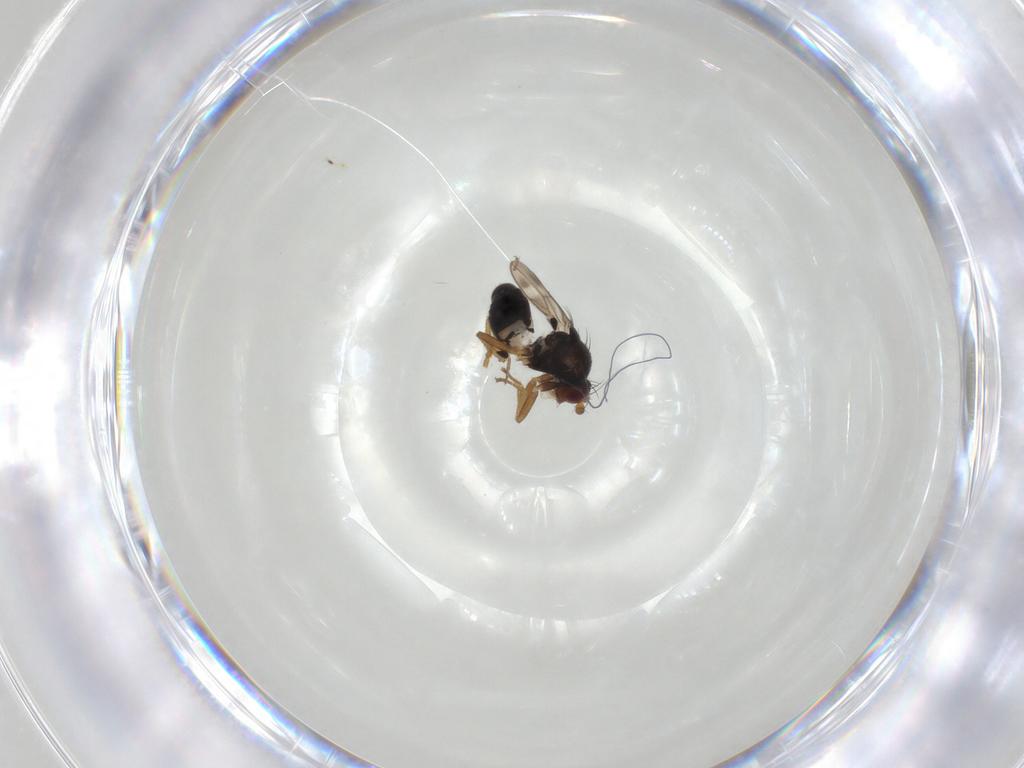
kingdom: Animalia
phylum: Arthropoda
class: Insecta
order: Diptera
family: Sphaeroceridae
